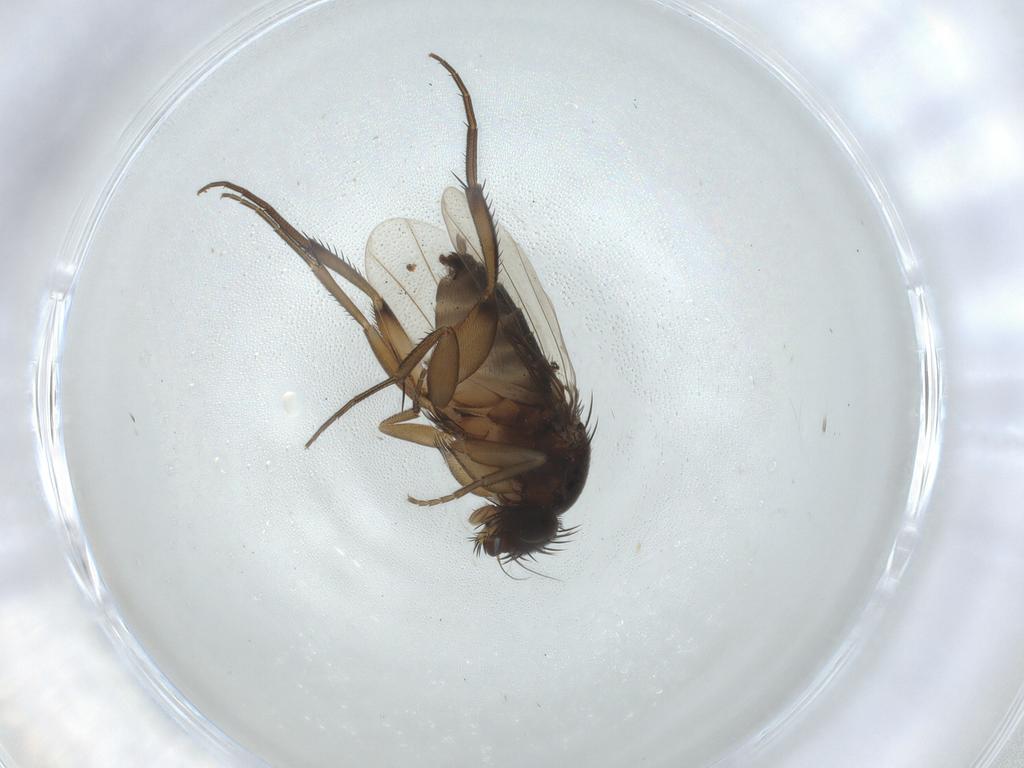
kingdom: Animalia
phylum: Arthropoda
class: Insecta
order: Diptera
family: Phoridae
